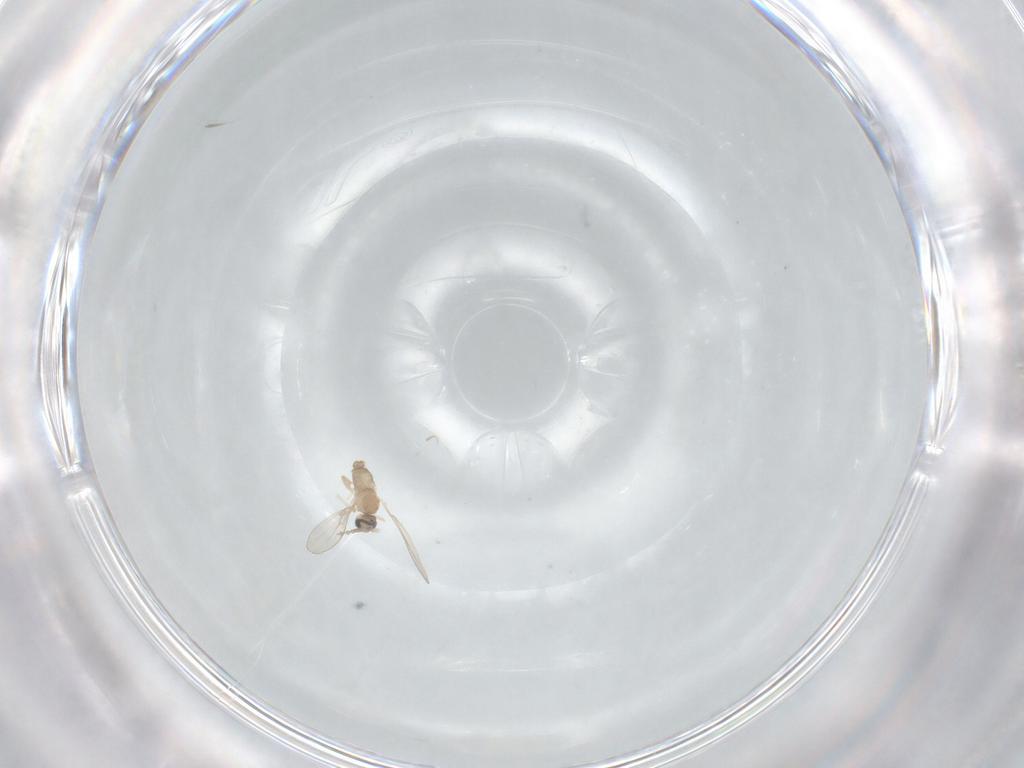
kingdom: Animalia
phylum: Arthropoda
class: Insecta
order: Diptera
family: Cecidomyiidae
